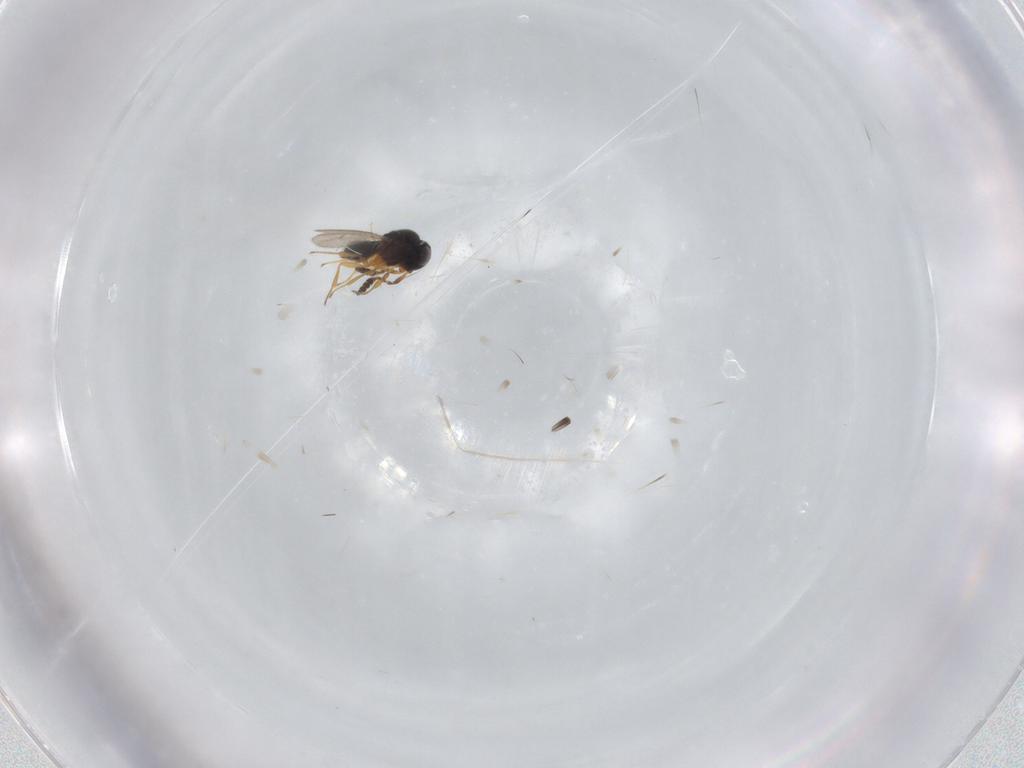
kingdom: Animalia
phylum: Arthropoda
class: Insecta
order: Hymenoptera
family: Scelionidae
